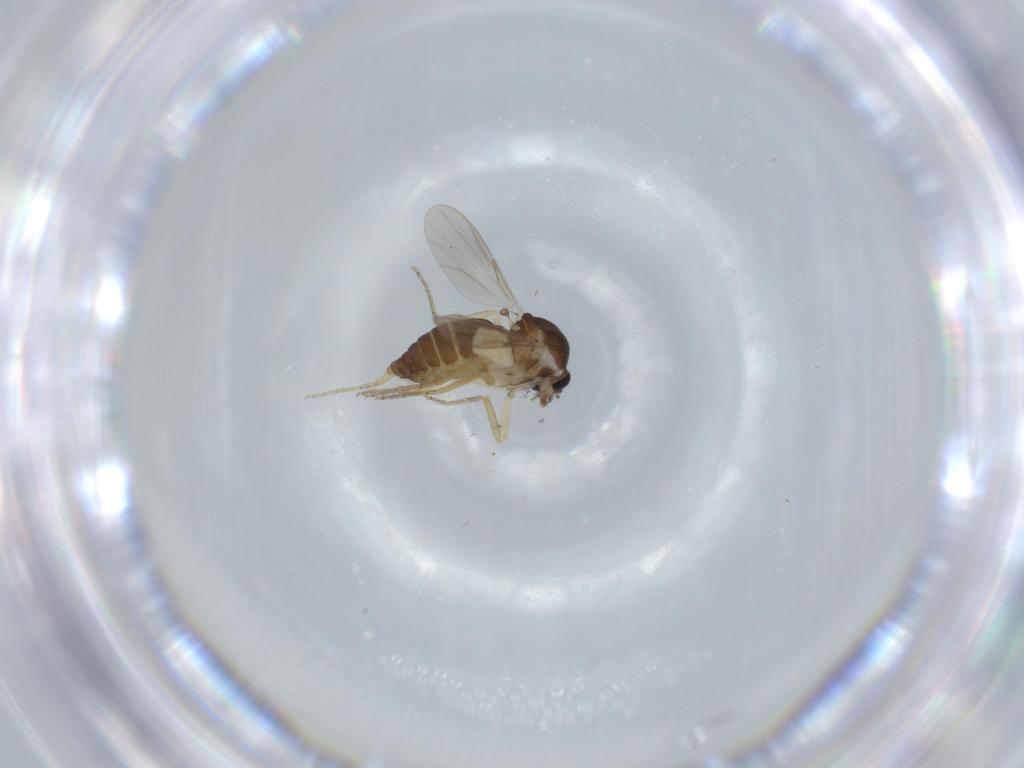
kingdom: Animalia
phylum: Arthropoda
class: Insecta
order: Diptera
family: Ceratopogonidae
